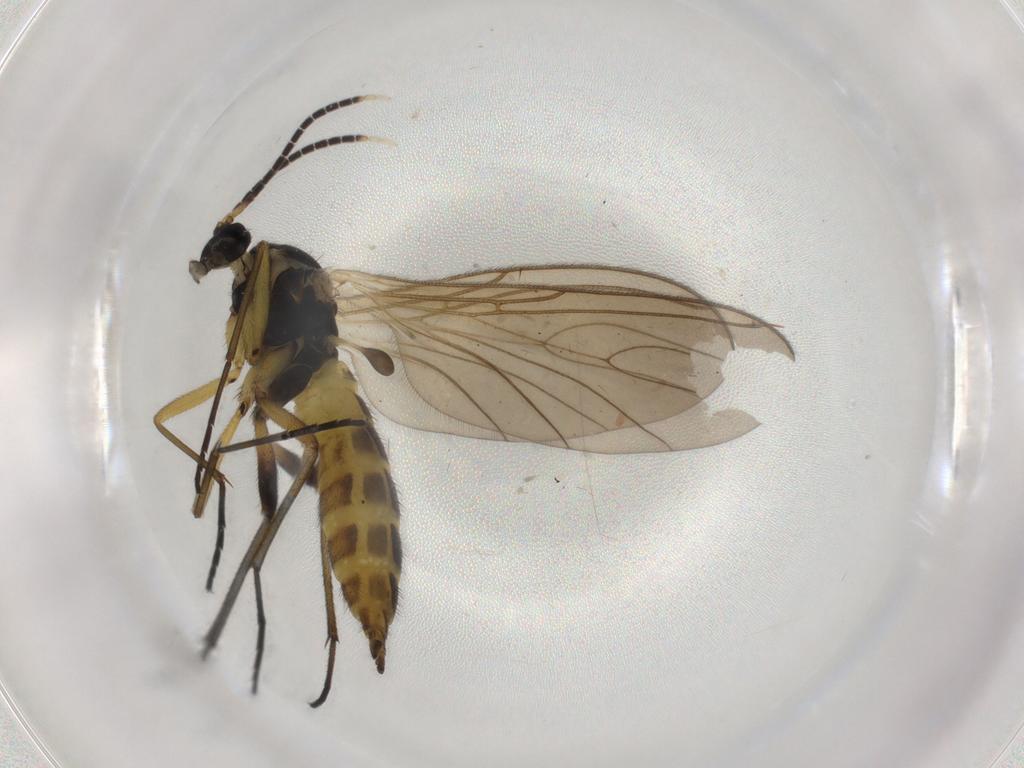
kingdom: Animalia
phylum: Arthropoda
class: Insecta
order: Diptera
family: Sciaridae
